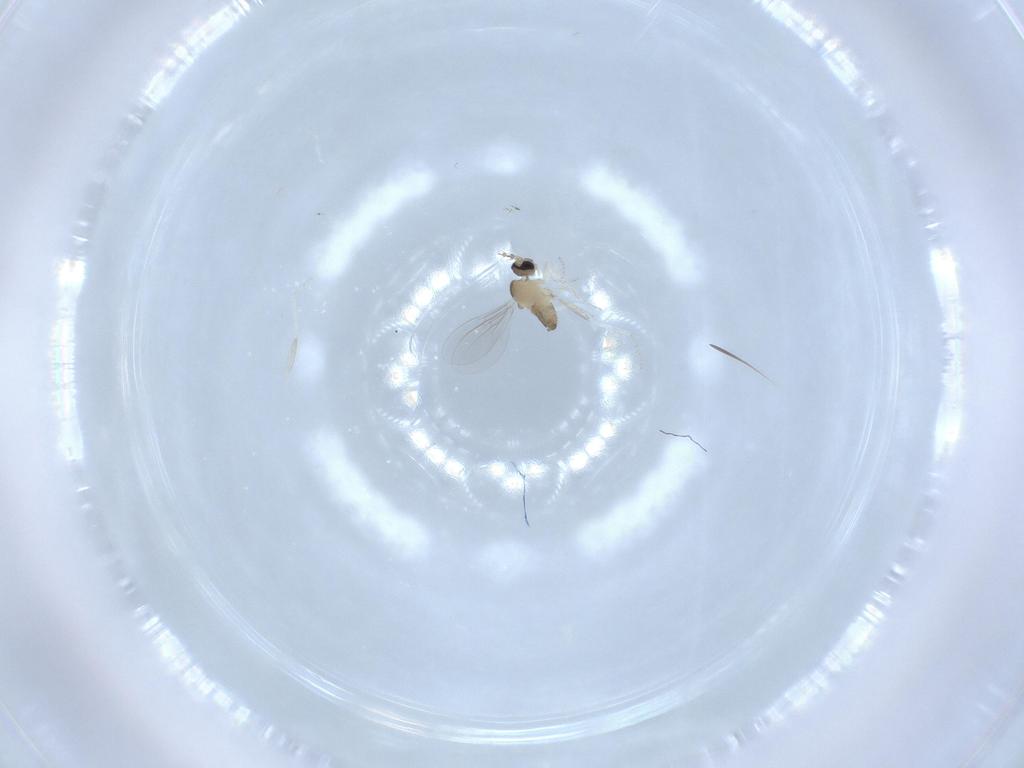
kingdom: Animalia
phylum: Arthropoda
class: Insecta
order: Diptera
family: Cecidomyiidae
